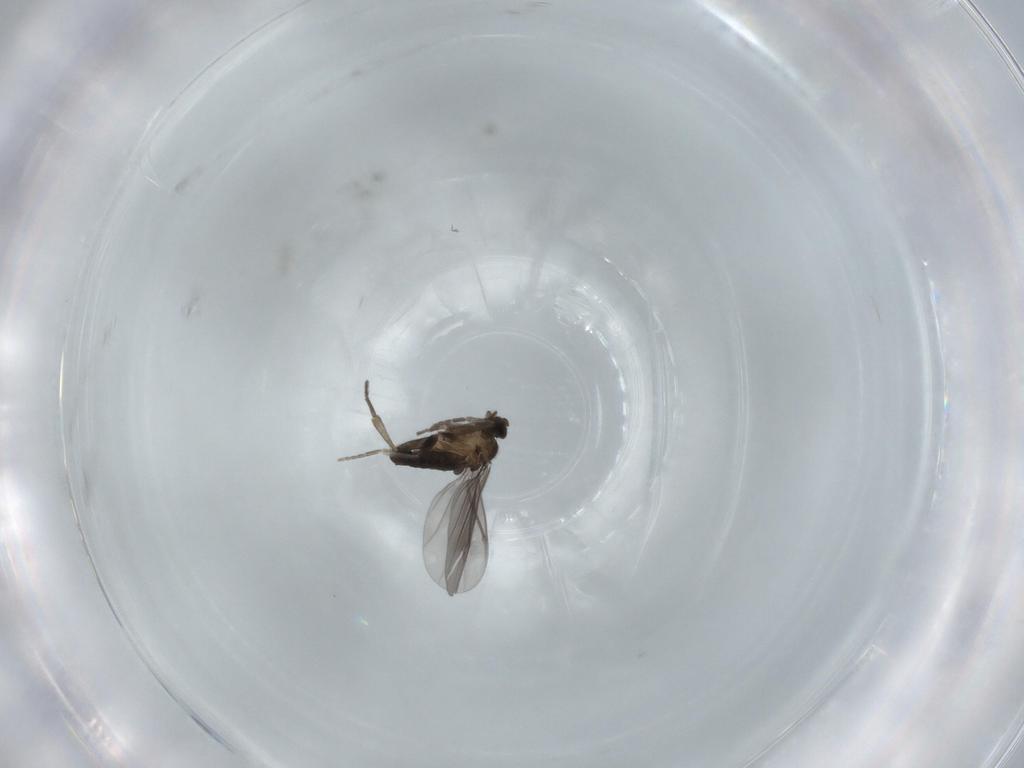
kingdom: Animalia
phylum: Arthropoda
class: Insecta
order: Diptera
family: Phoridae
